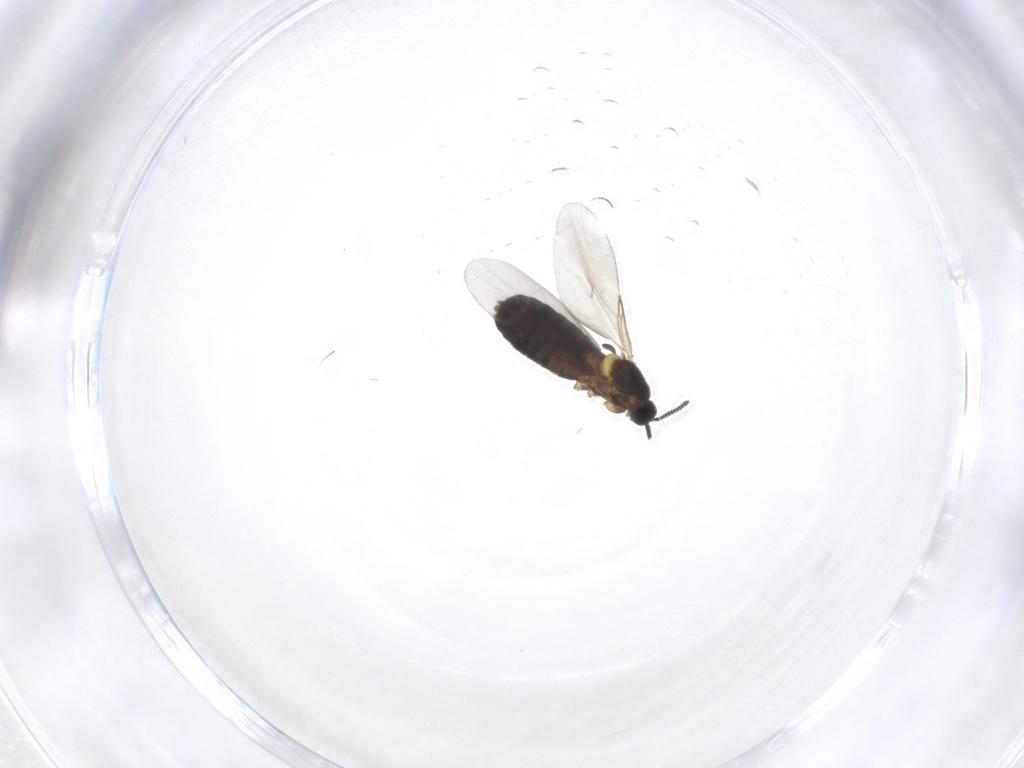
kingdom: Animalia
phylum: Arthropoda
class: Insecta
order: Diptera
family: Scatopsidae
